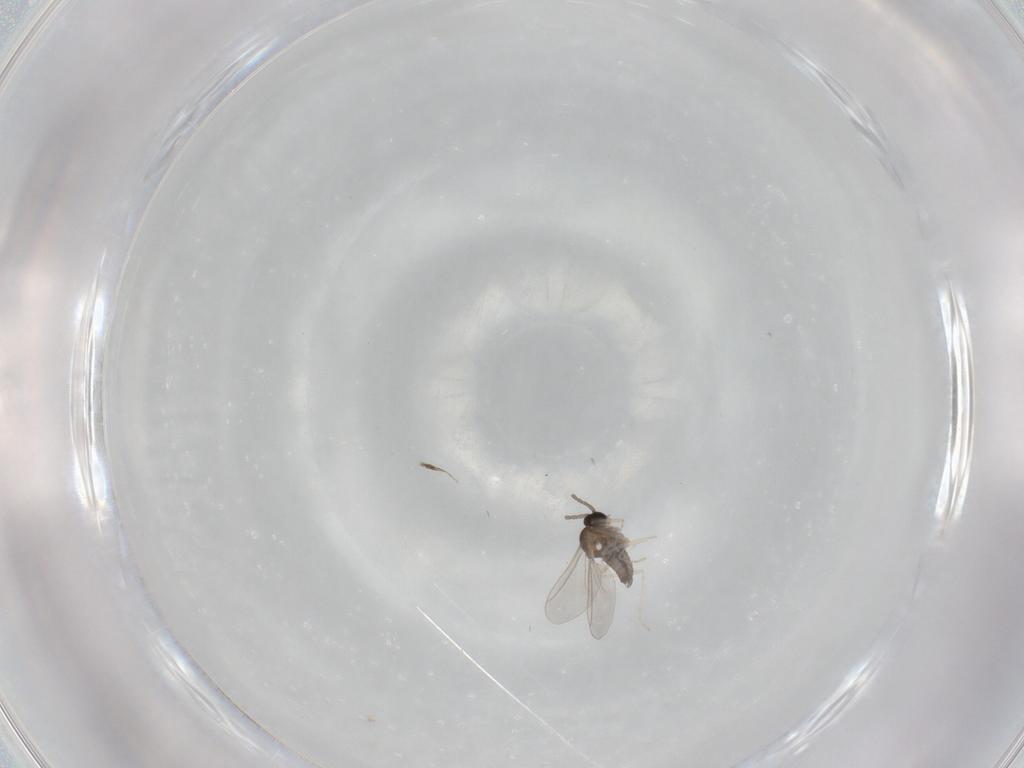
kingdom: Animalia
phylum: Arthropoda
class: Insecta
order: Diptera
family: Cecidomyiidae
